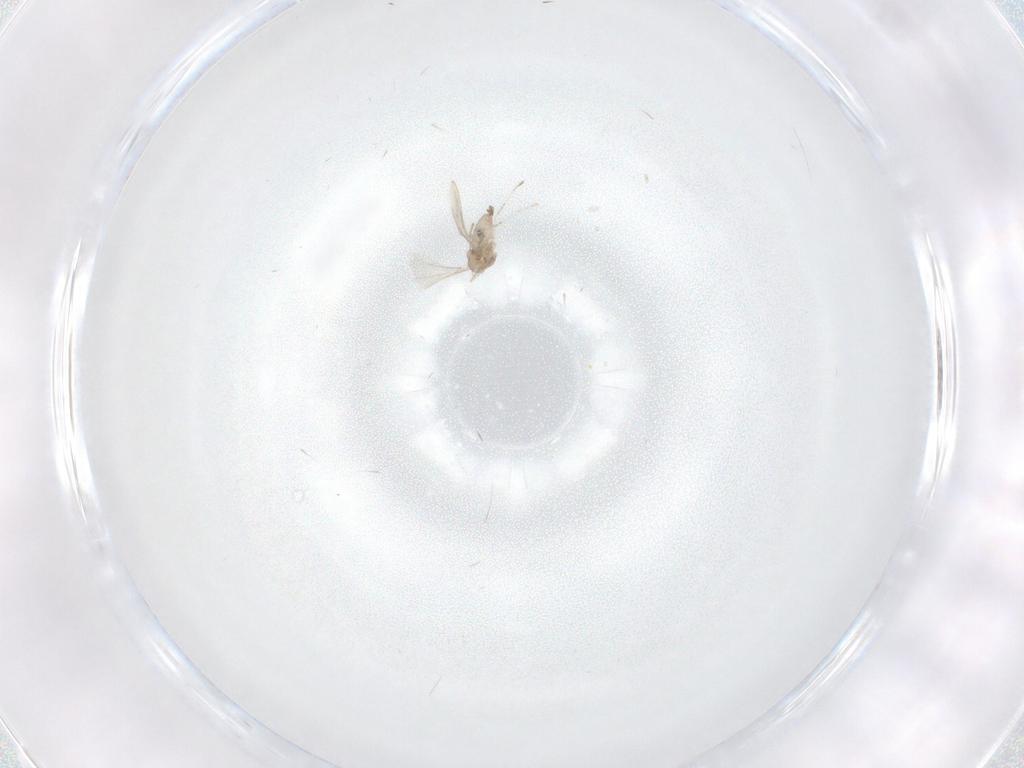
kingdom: Animalia
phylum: Arthropoda
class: Insecta
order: Diptera
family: Cecidomyiidae
